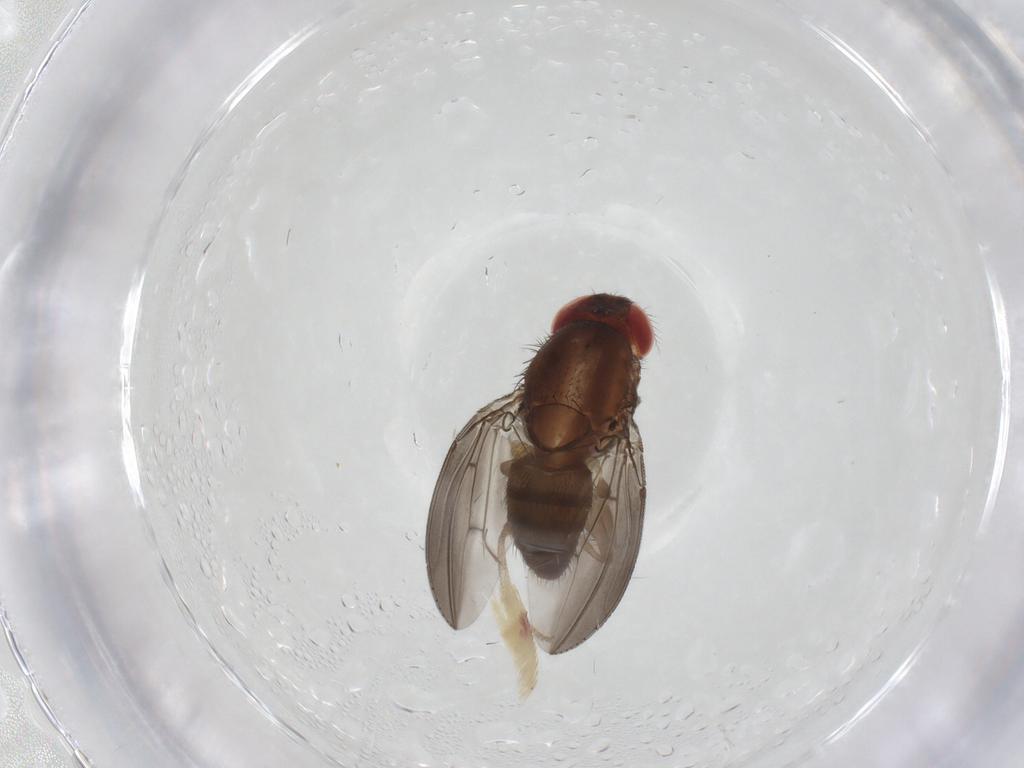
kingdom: Animalia
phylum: Arthropoda
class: Insecta
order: Diptera
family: Drosophilidae
